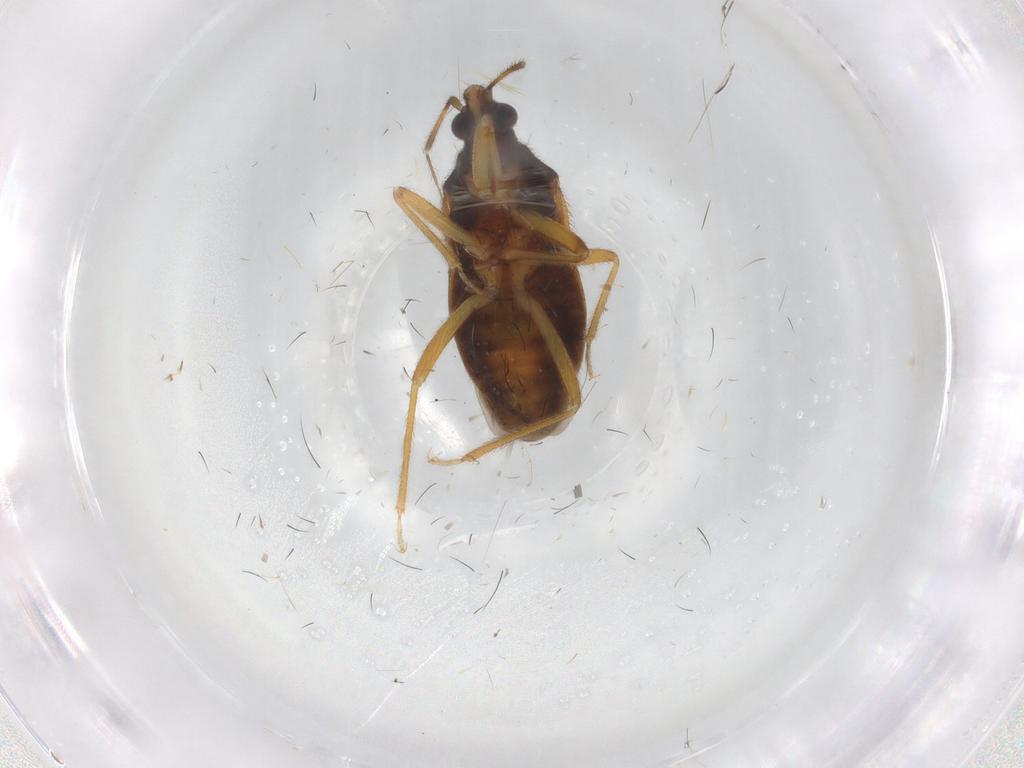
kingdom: Animalia
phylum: Arthropoda
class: Insecta
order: Hemiptera
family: Anthocoridae
